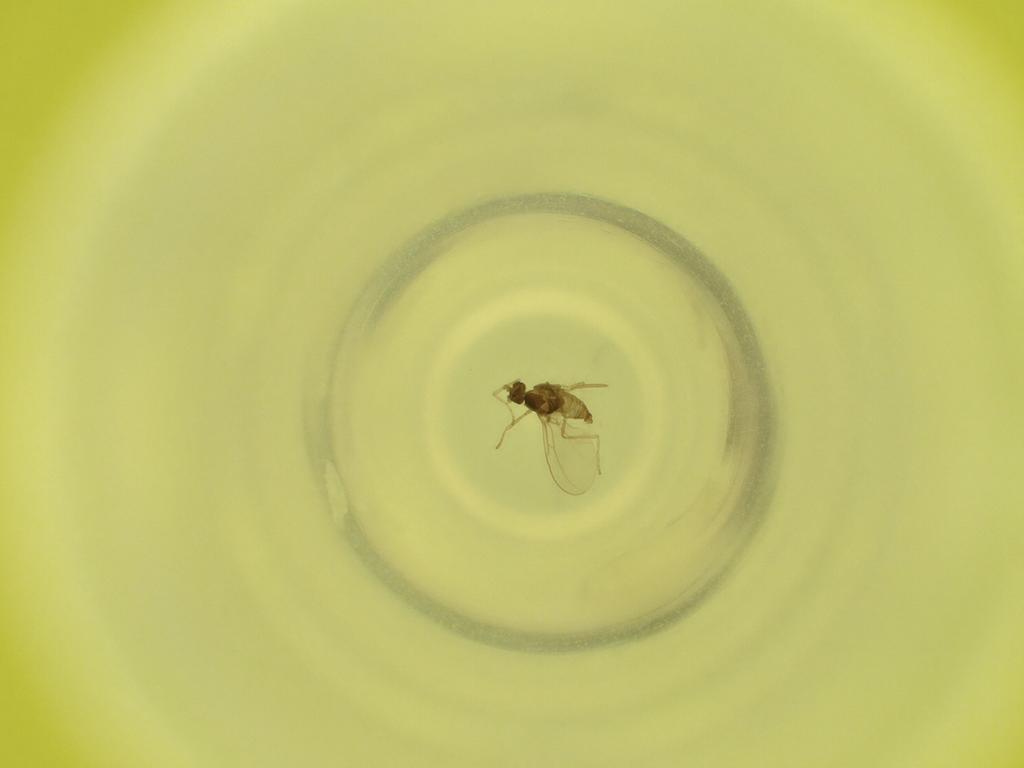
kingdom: Animalia
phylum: Arthropoda
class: Insecta
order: Diptera
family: Cecidomyiidae
